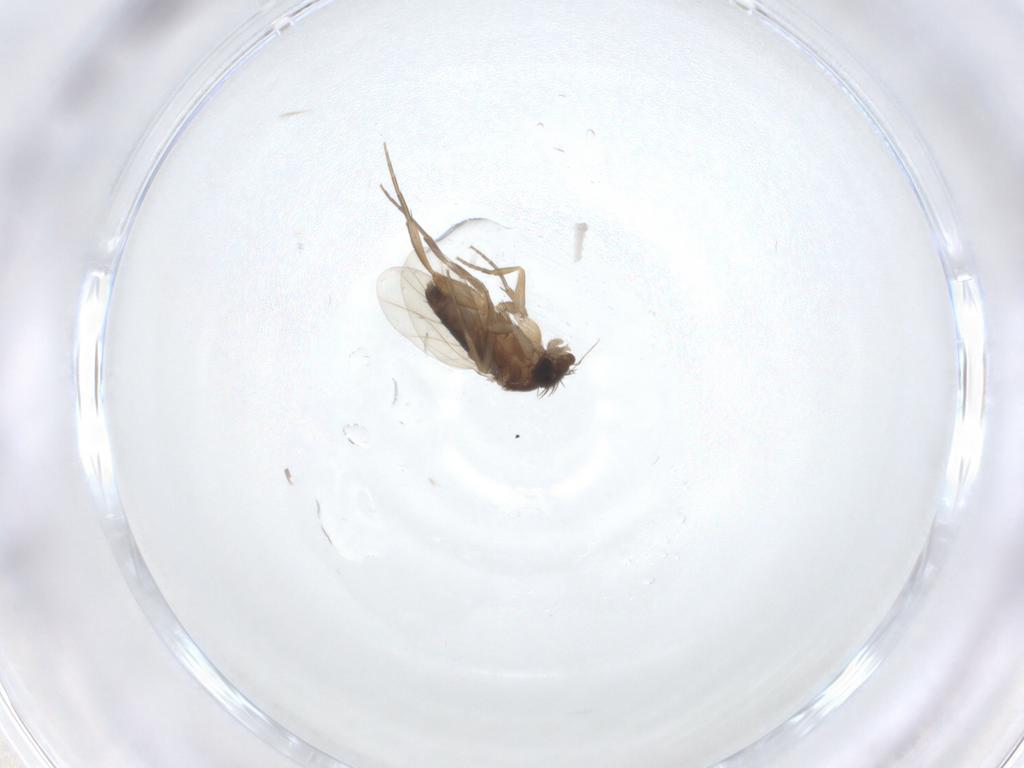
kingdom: Animalia
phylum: Arthropoda
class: Insecta
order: Diptera
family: Phoridae
